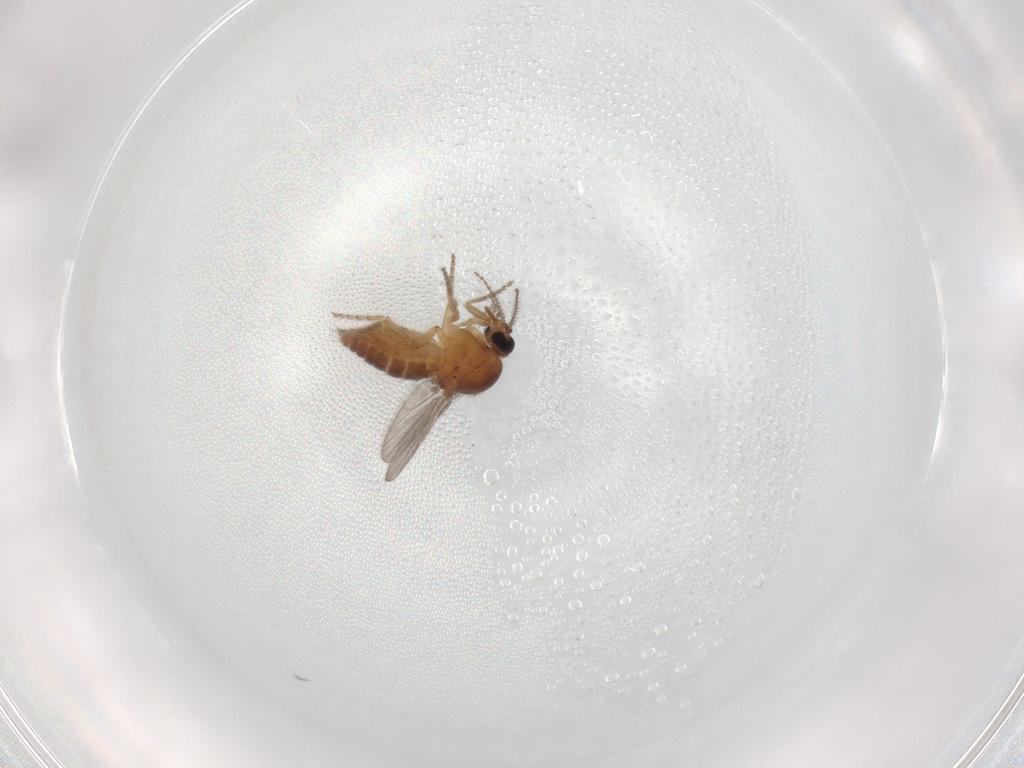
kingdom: Animalia
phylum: Arthropoda
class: Insecta
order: Diptera
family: Ceratopogonidae
